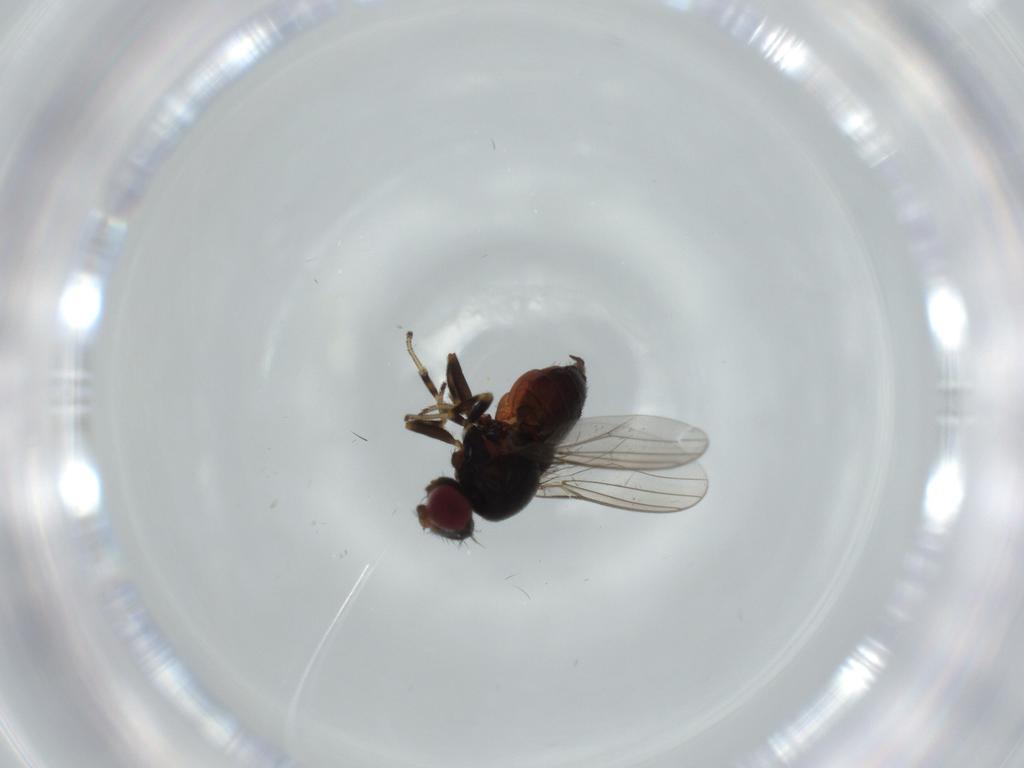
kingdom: Animalia
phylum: Arthropoda
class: Insecta
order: Diptera
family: Chloropidae
